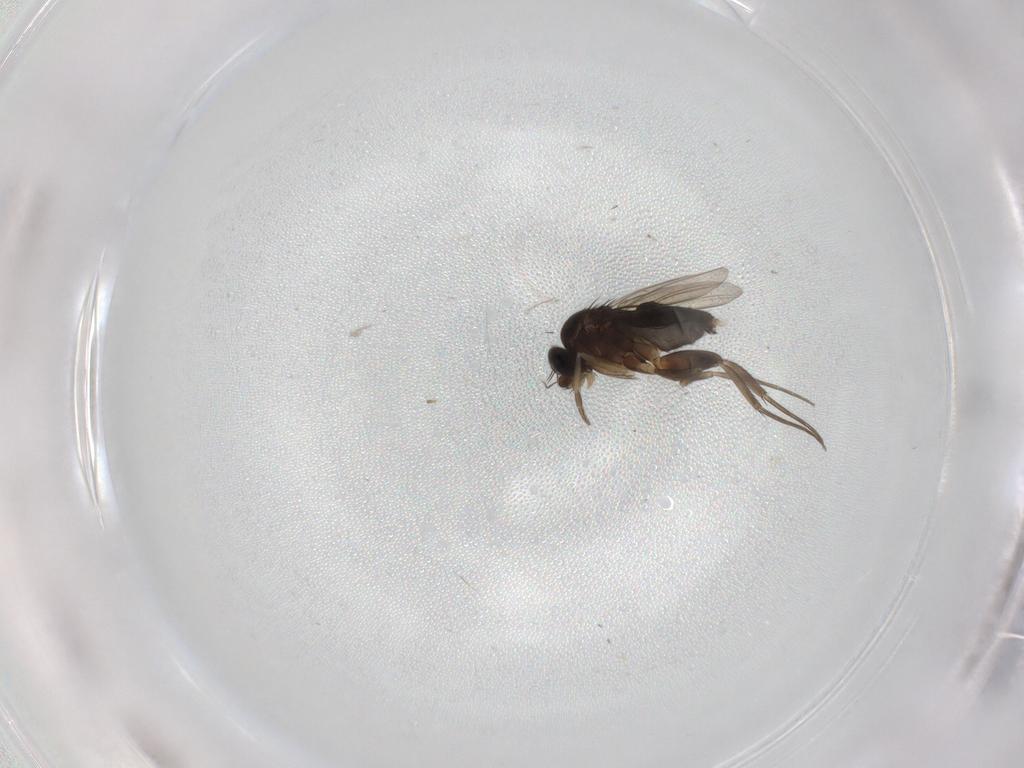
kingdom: Animalia
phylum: Arthropoda
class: Insecta
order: Diptera
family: Phoridae
